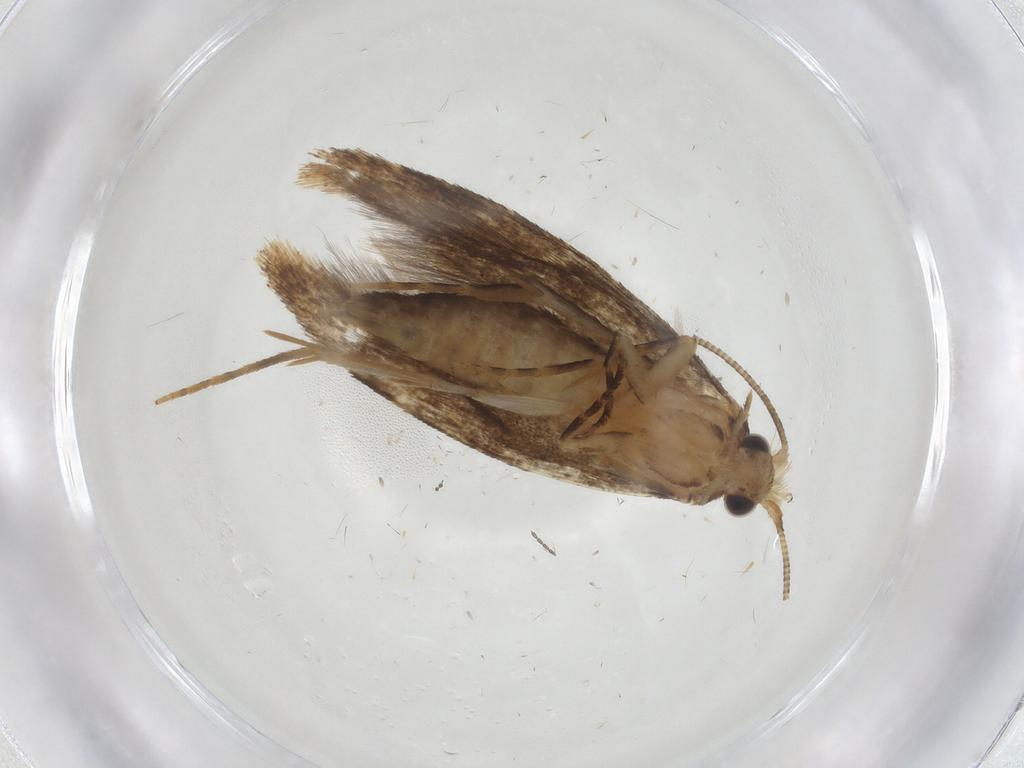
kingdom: Animalia
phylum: Arthropoda
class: Insecta
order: Lepidoptera
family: Tineidae
